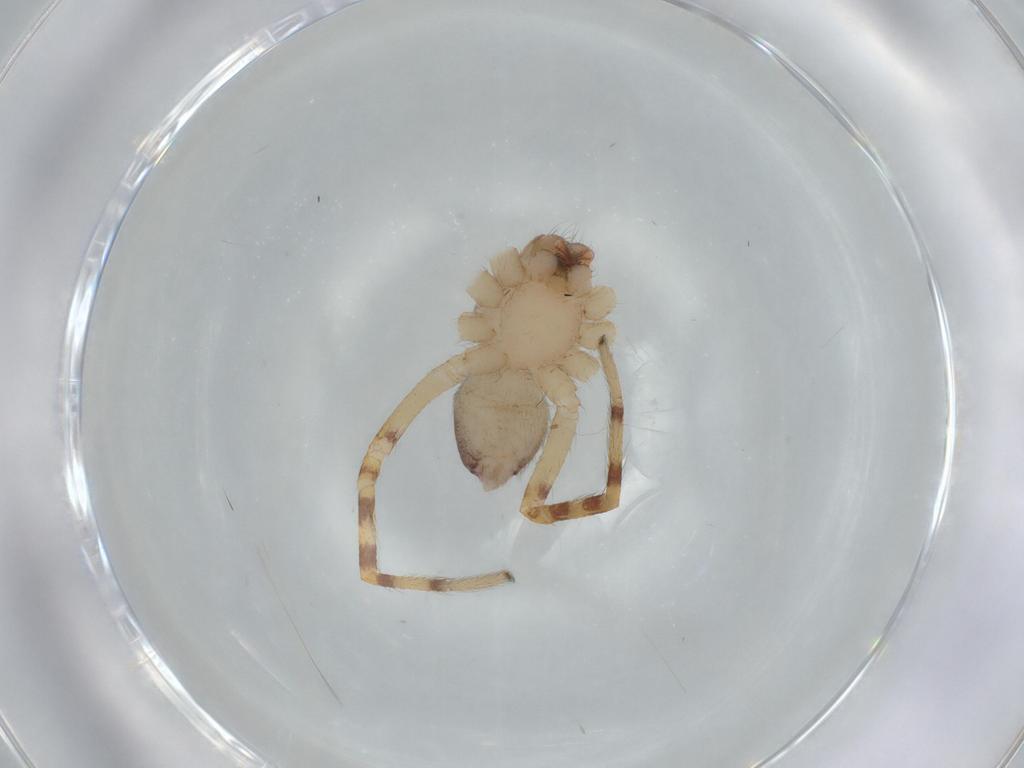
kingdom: Animalia
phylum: Arthropoda
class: Arachnida
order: Araneae
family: Corinnidae
